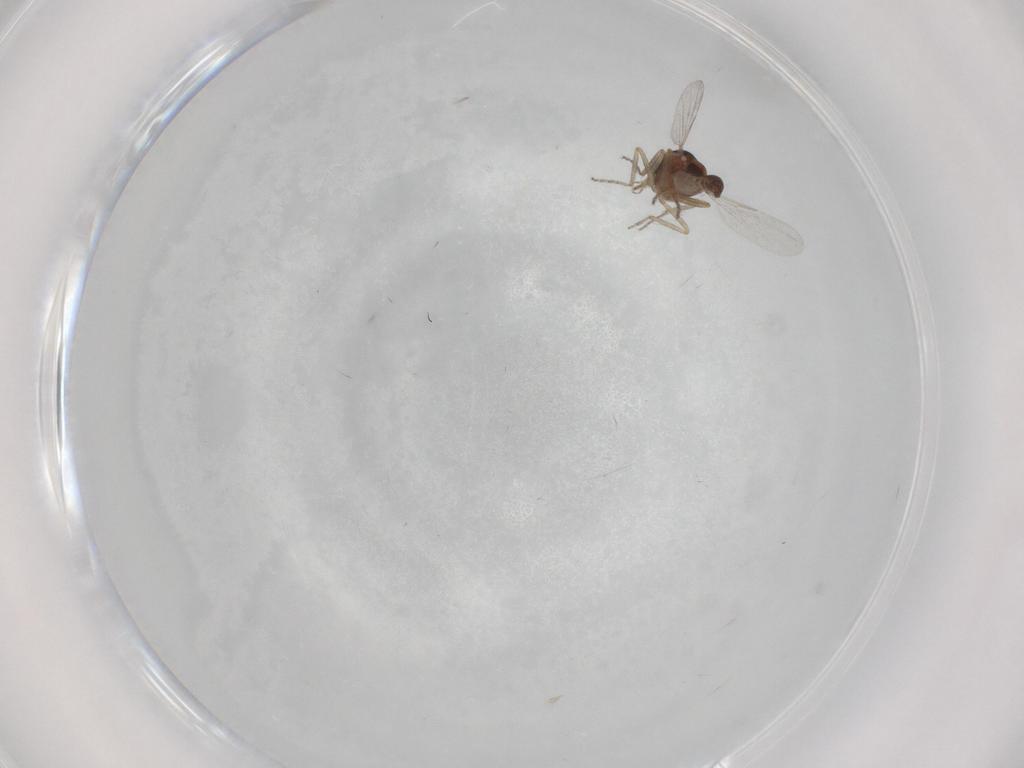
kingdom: Animalia
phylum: Arthropoda
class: Insecta
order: Diptera
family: Ceratopogonidae
